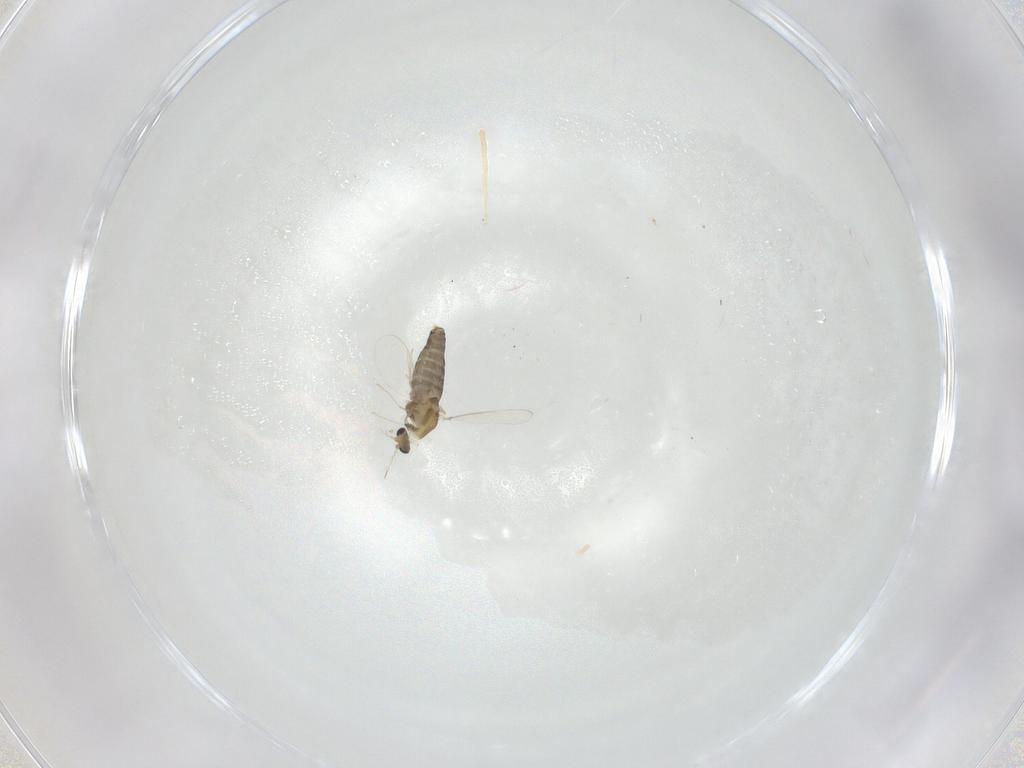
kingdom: Animalia
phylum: Arthropoda
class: Insecta
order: Diptera
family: Chironomidae
